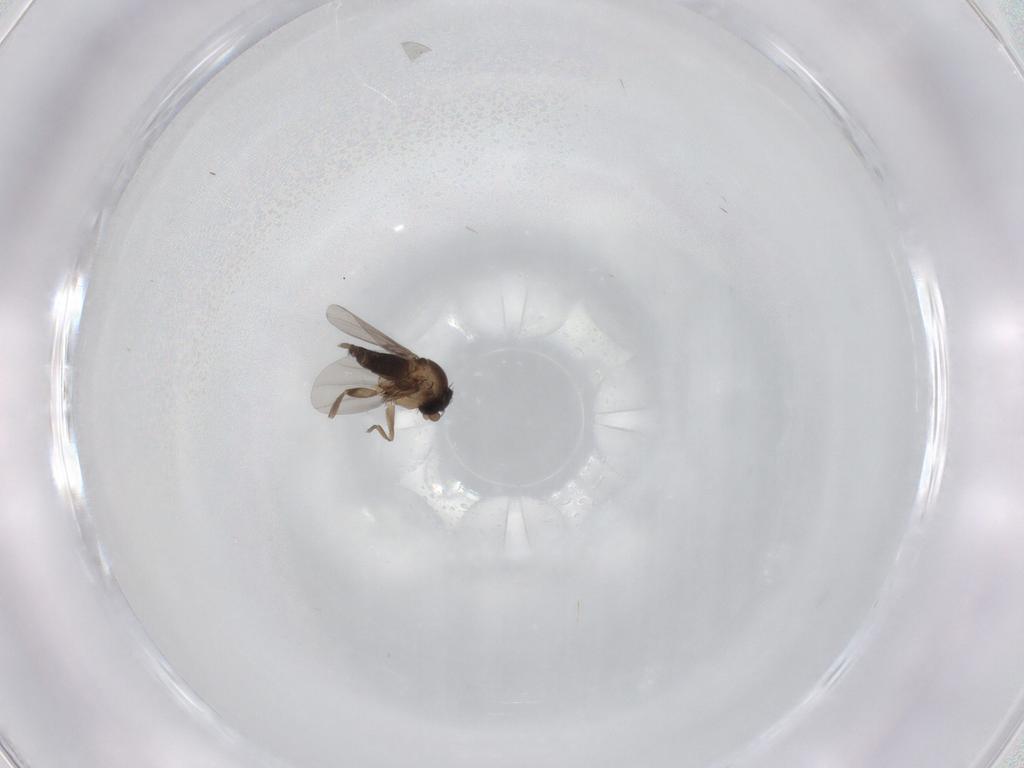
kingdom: Animalia
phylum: Arthropoda
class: Insecta
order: Diptera
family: Phoridae
